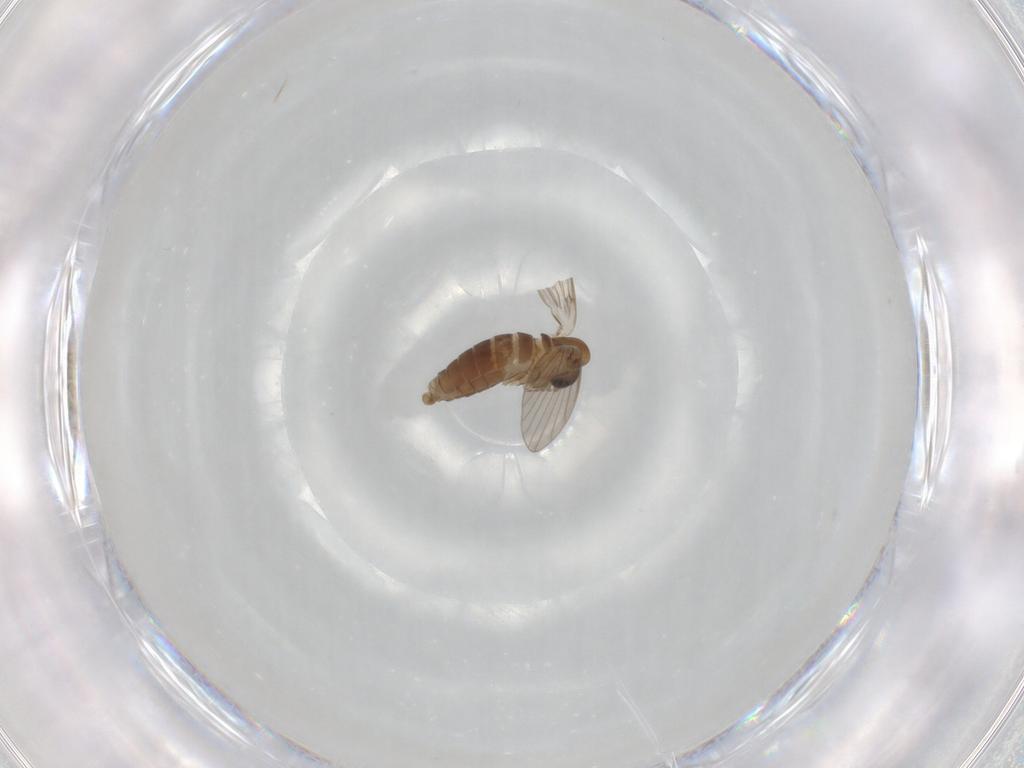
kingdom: Animalia
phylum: Arthropoda
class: Insecta
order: Diptera
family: Psychodidae
